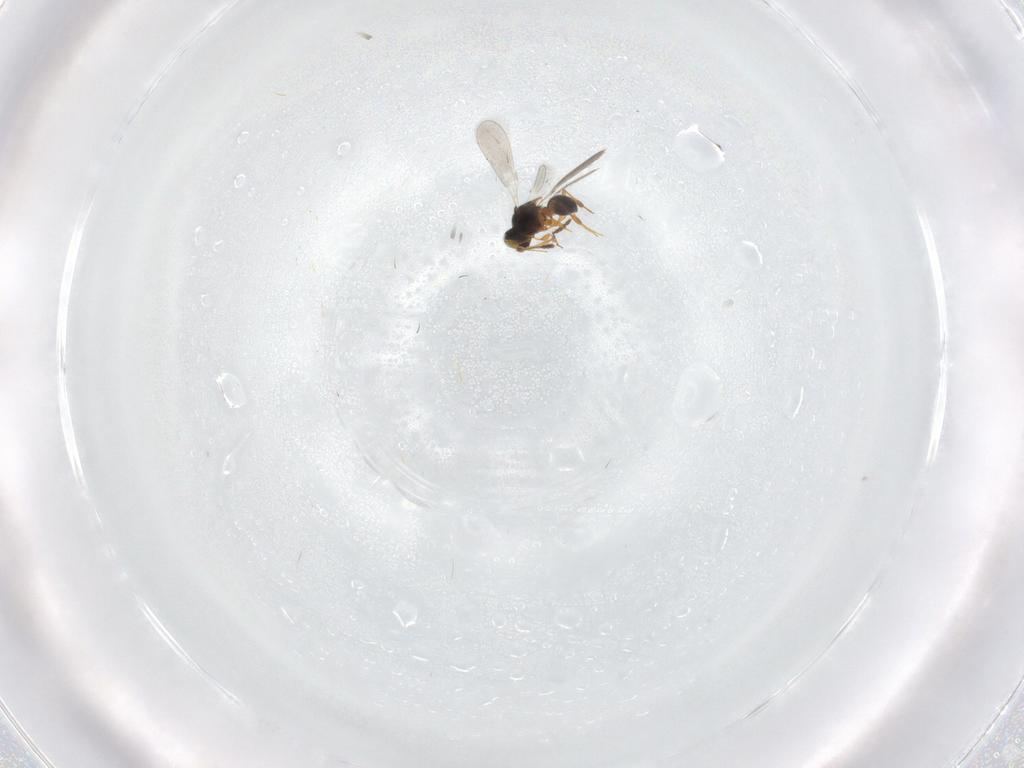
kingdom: Animalia
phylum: Arthropoda
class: Insecta
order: Hymenoptera
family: Platygastridae
